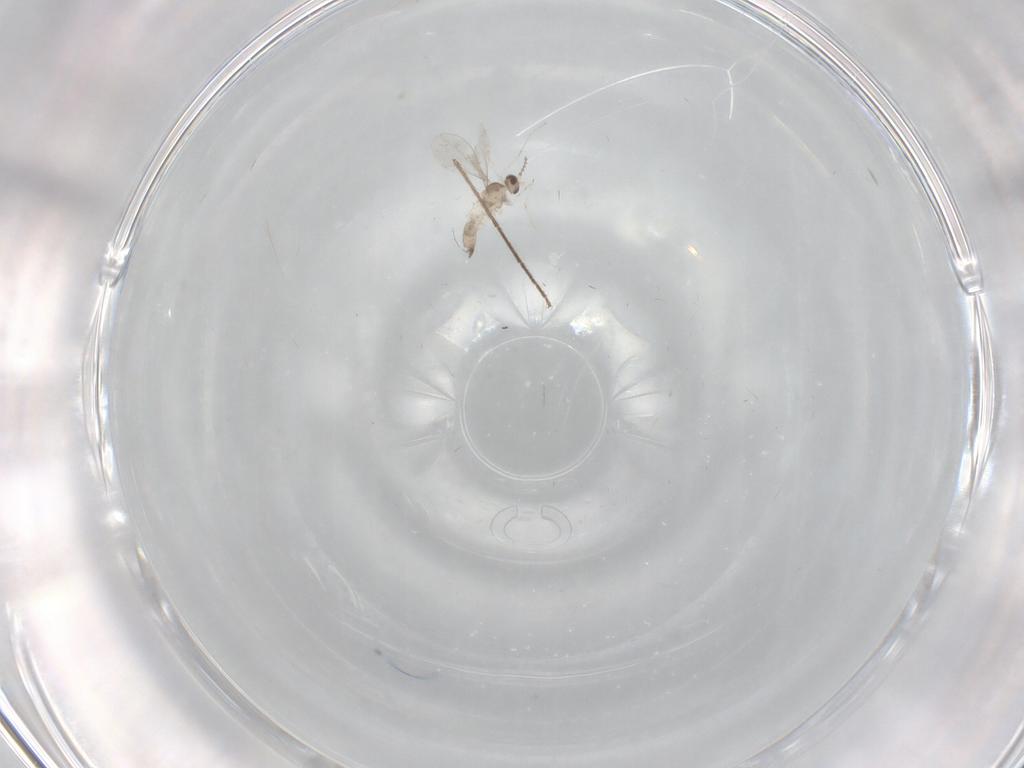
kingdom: Animalia
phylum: Arthropoda
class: Insecta
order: Diptera
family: Cecidomyiidae
